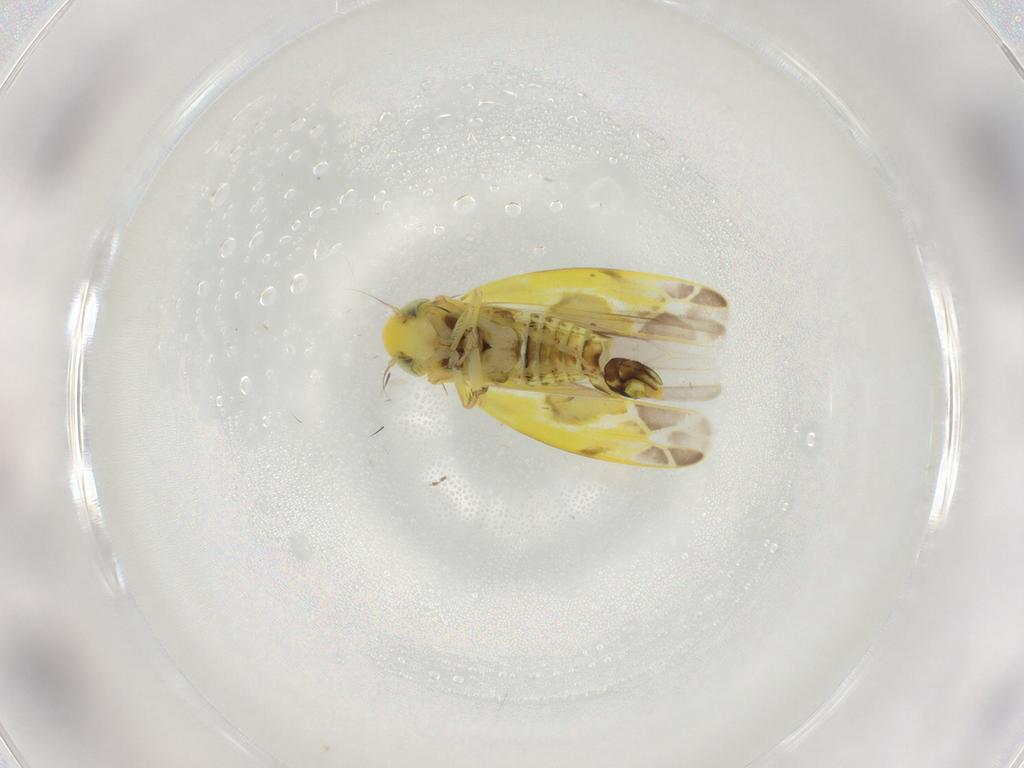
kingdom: Animalia
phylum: Arthropoda
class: Insecta
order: Hemiptera
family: Cicadellidae
